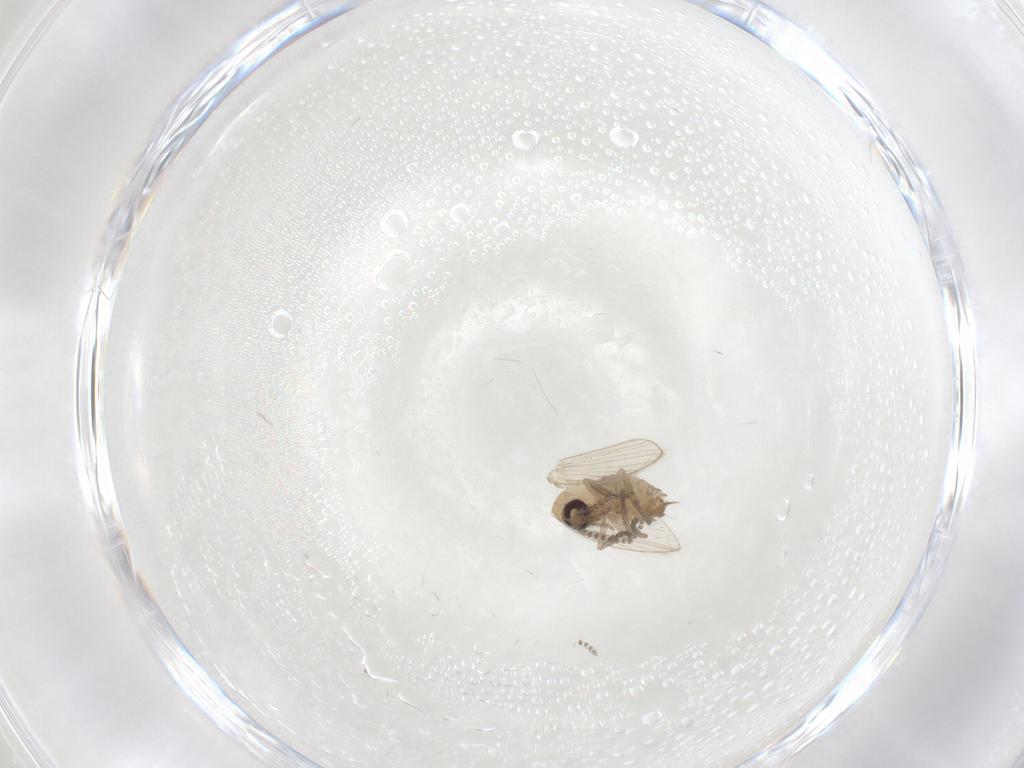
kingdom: Animalia
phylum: Arthropoda
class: Insecta
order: Diptera
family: Psychodidae
